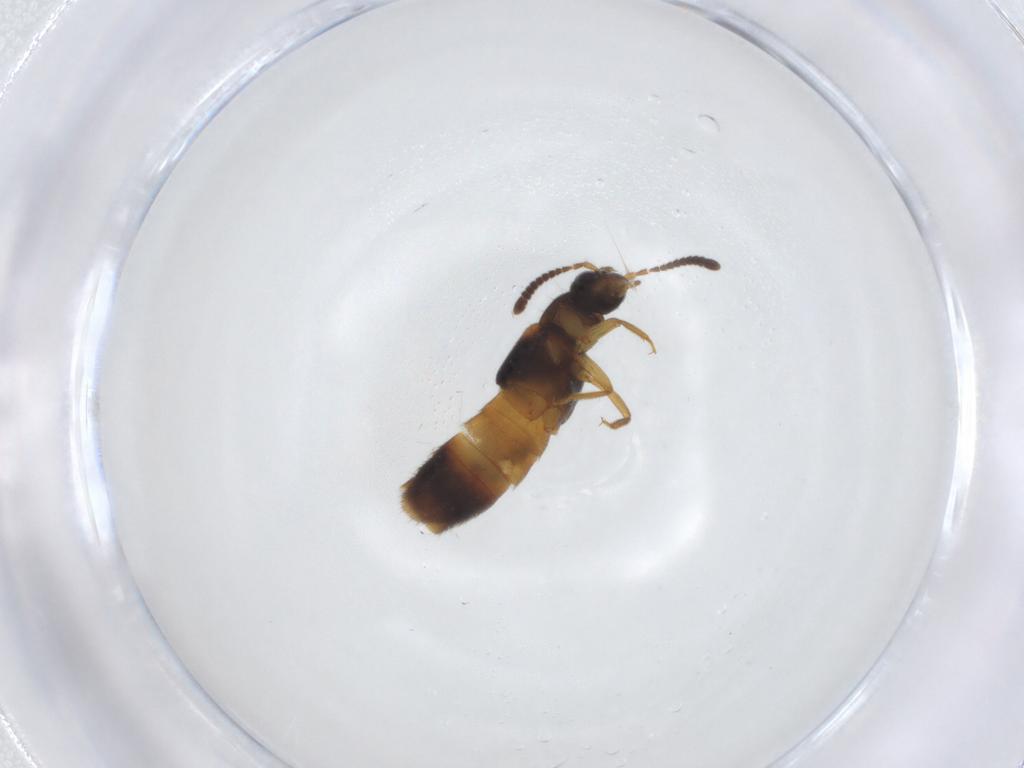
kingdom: Animalia
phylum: Arthropoda
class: Insecta
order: Coleoptera
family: Staphylinidae
